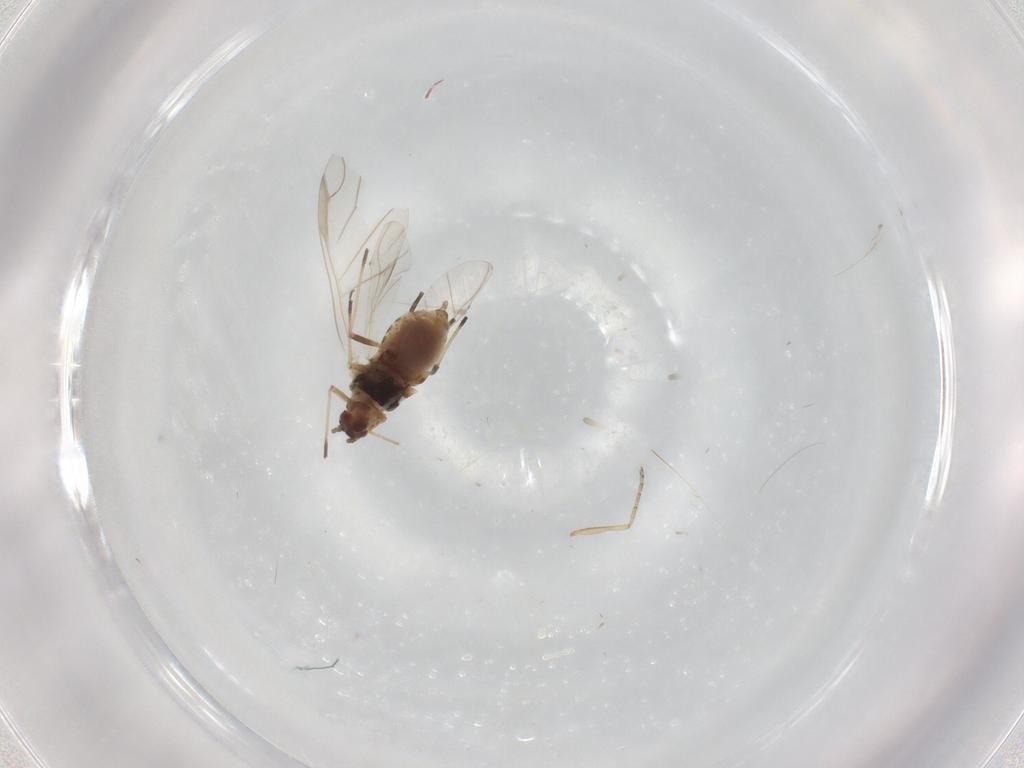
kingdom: Animalia
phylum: Arthropoda
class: Insecta
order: Hemiptera
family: Aphididae
